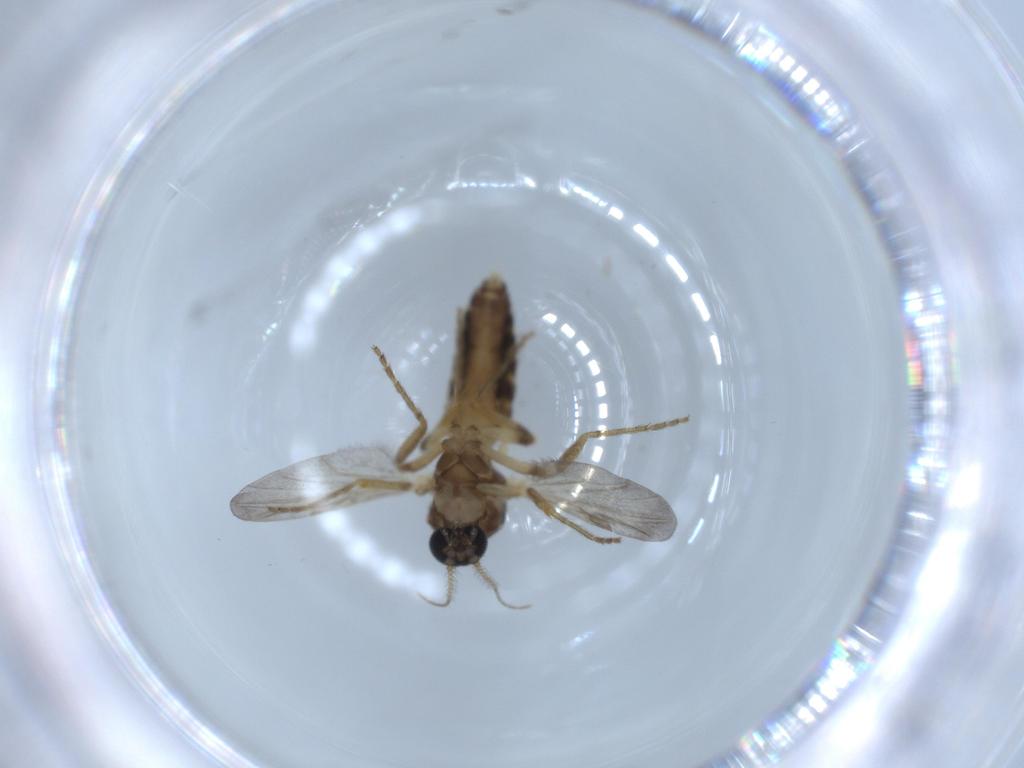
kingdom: Animalia
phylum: Arthropoda
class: Insecta
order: Diptera
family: Ceratopogonidae
